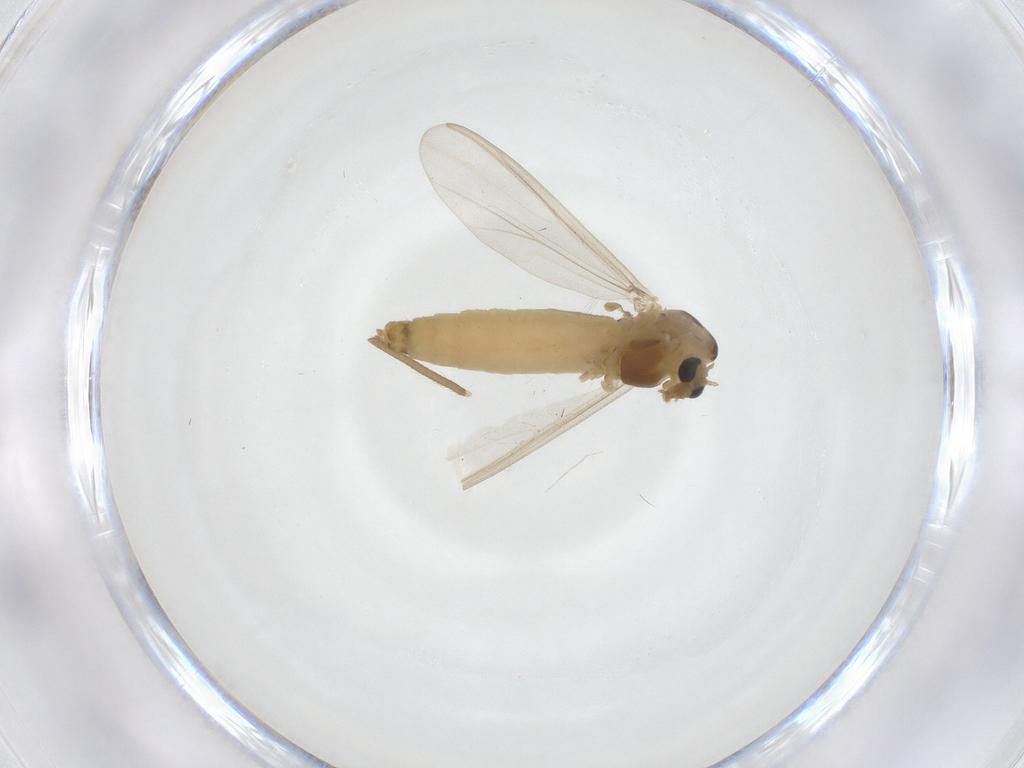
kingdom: Animalia
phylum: Arthropoda
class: Insecta
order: Diptera
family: Chironomidae
